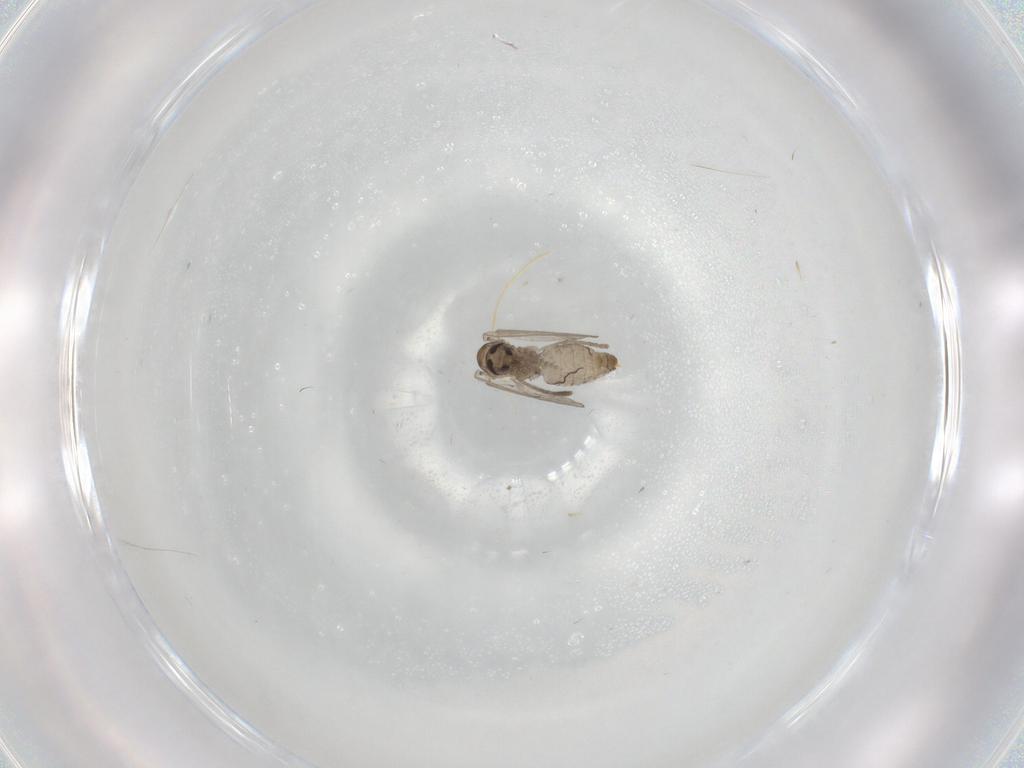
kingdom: Animalia
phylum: Arthropoda
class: Insecta
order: Diptera
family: Psychodidae
